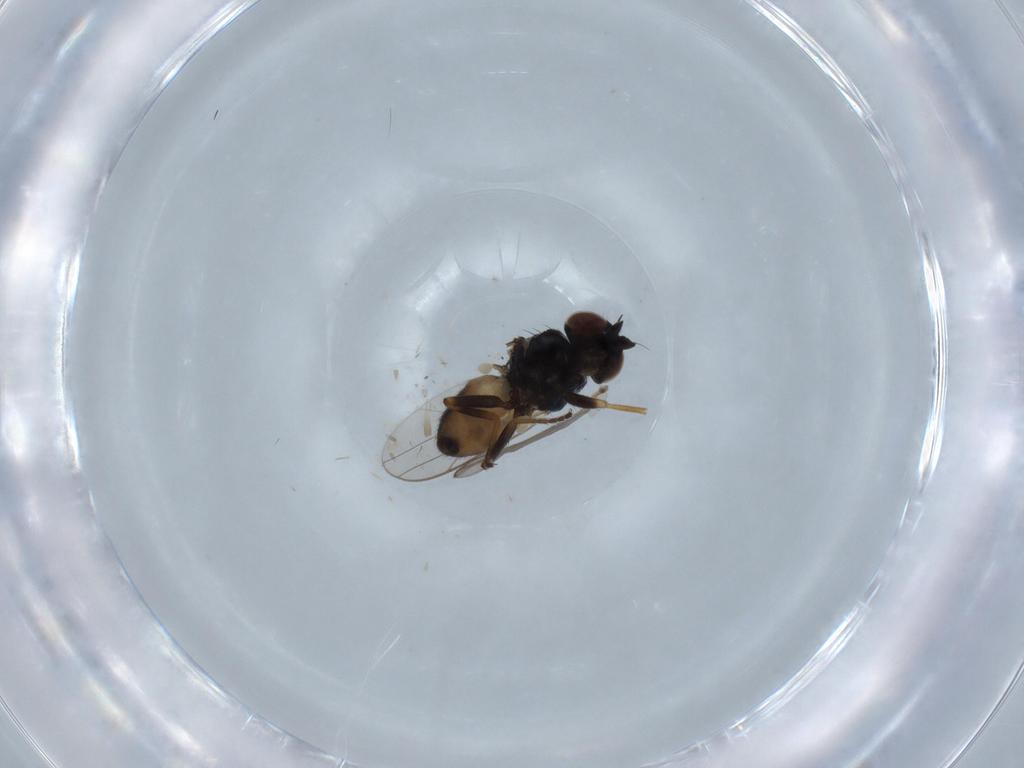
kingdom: Animalia
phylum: Arthropoda
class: Insecta
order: Diptera
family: Chloropidae
